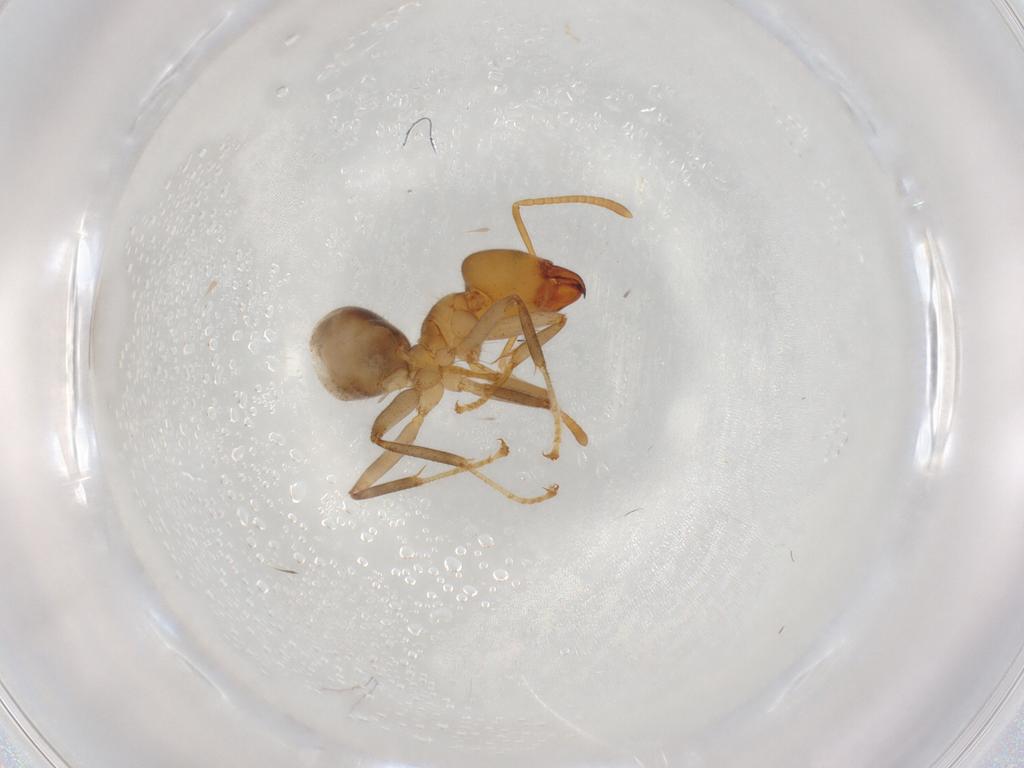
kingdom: Animalia
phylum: Arthropoda
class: Insecta
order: Hymenoptera
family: Formicidae
